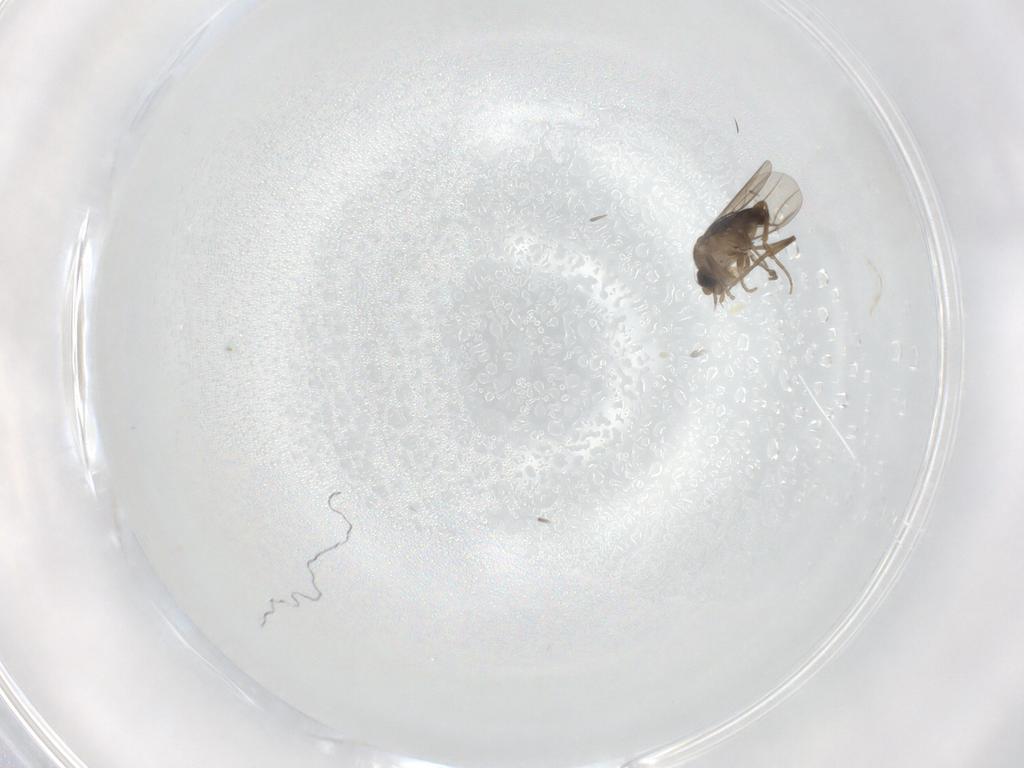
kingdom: Animalia
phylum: Arthropoda
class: Insecta
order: Diptera
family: Phoridae
